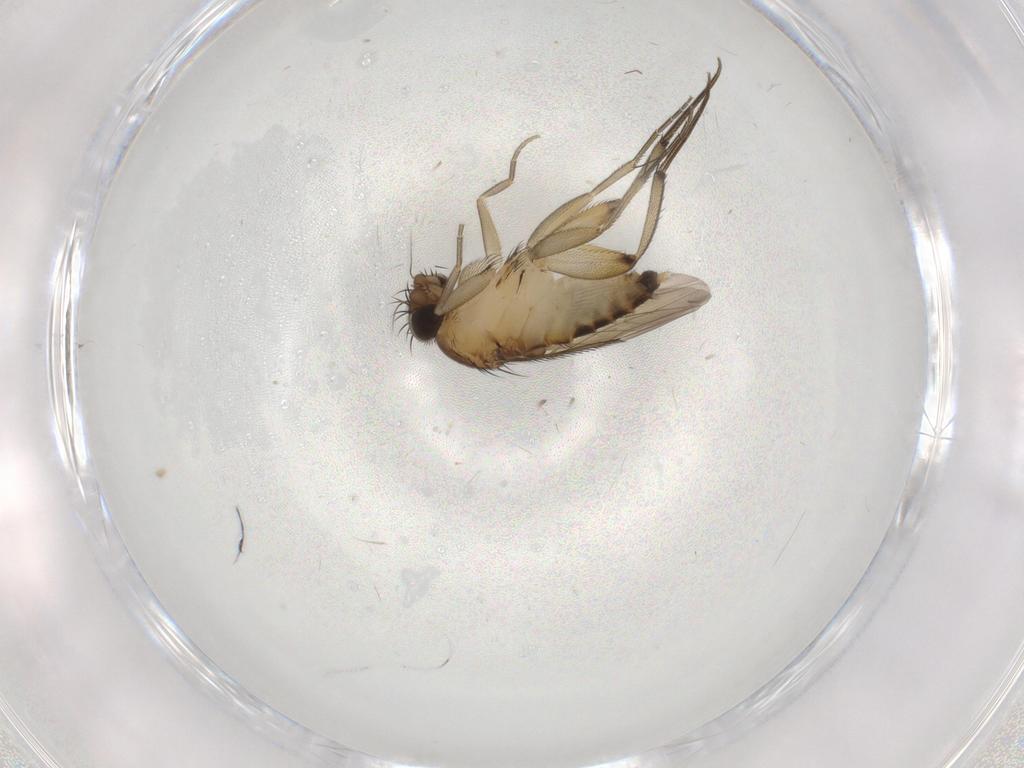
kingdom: Animalia
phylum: Arthropoda
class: Insecta
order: Diptera
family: Phoridae
